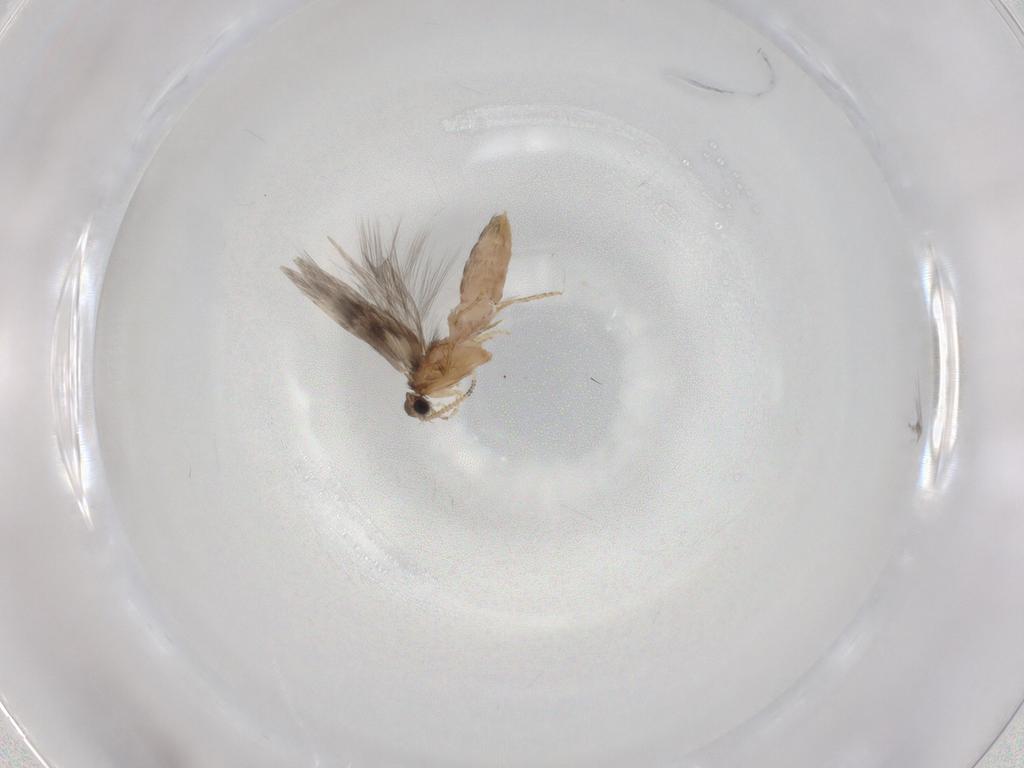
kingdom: Animalia
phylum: Arthropoda
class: Insecta
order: Trichoptera
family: Hydroptilidae
